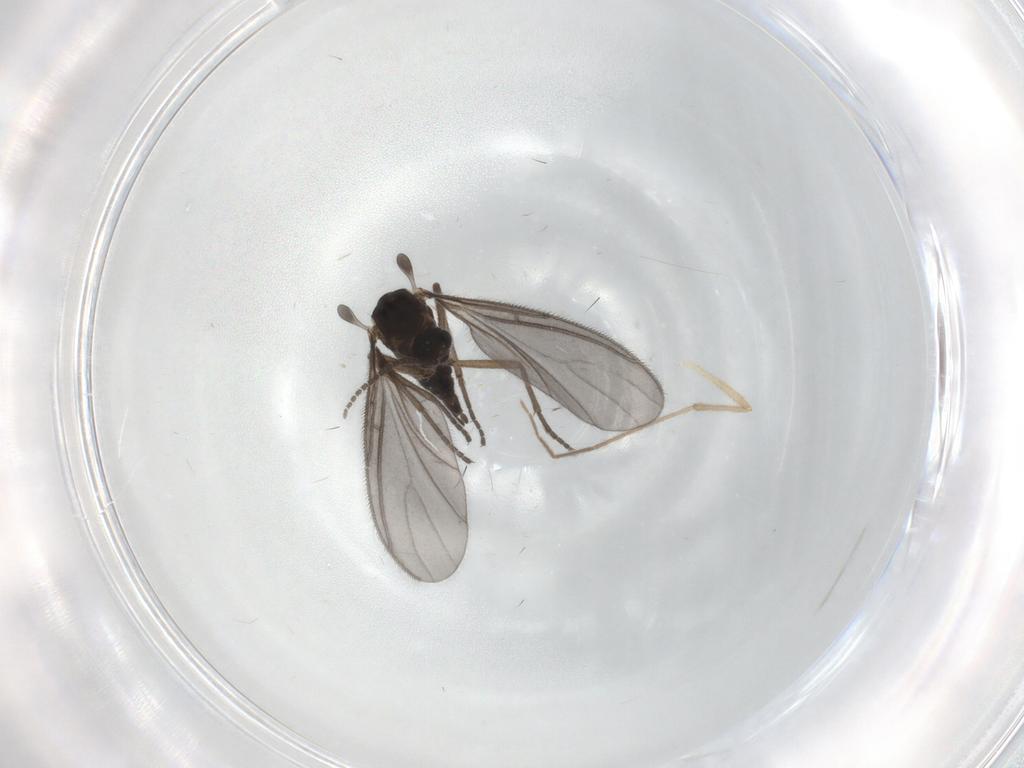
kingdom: Animalia
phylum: Arthropoda
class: Insecta
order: Diptera
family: Sciaridae
